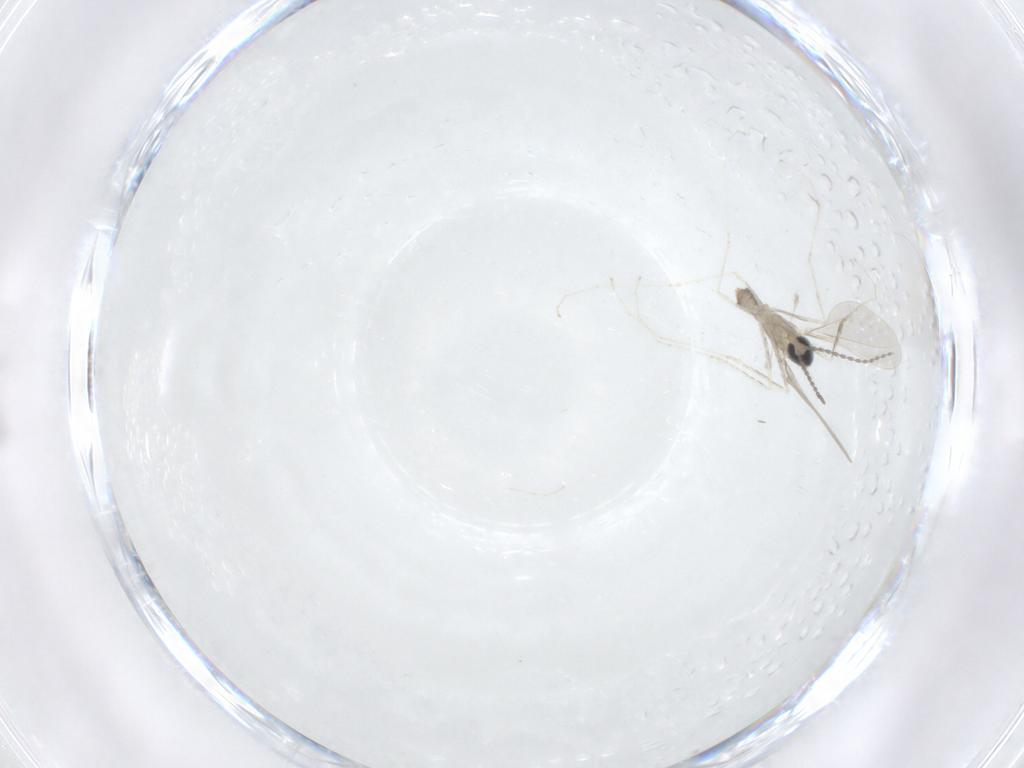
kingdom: Animalia
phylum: Arthropoda
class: Insecta
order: Diptera
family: Cecidomyiidae
